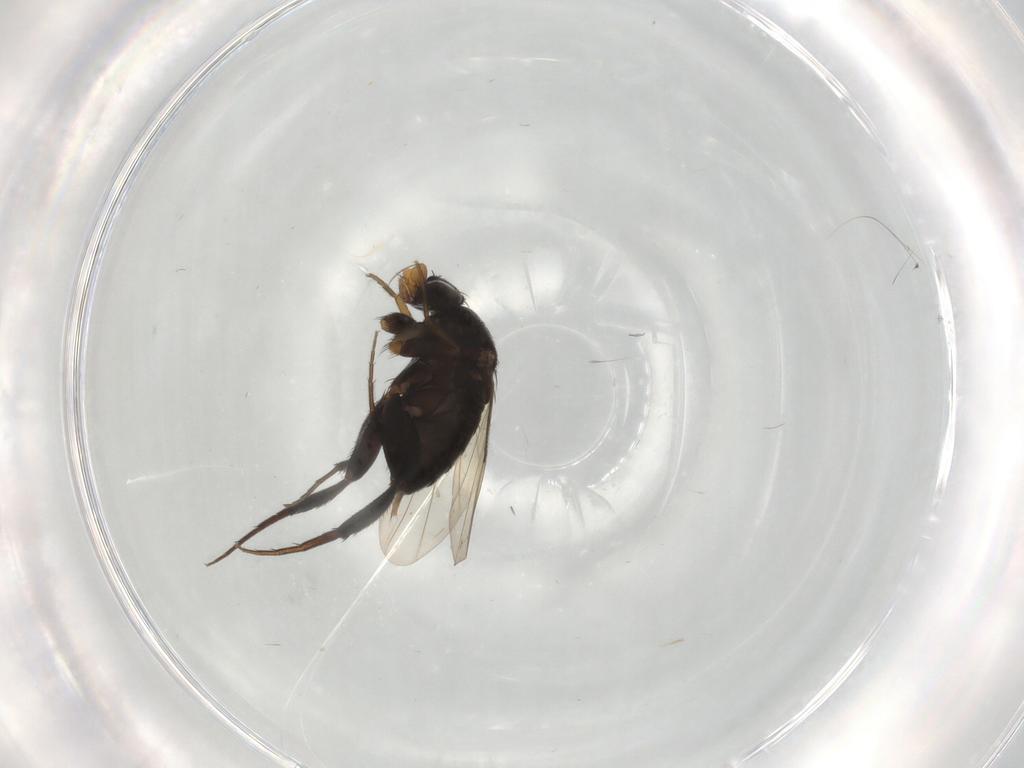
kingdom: Animalia
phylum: Arthropoda
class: Insecta
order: Diptera
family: Phoridae
